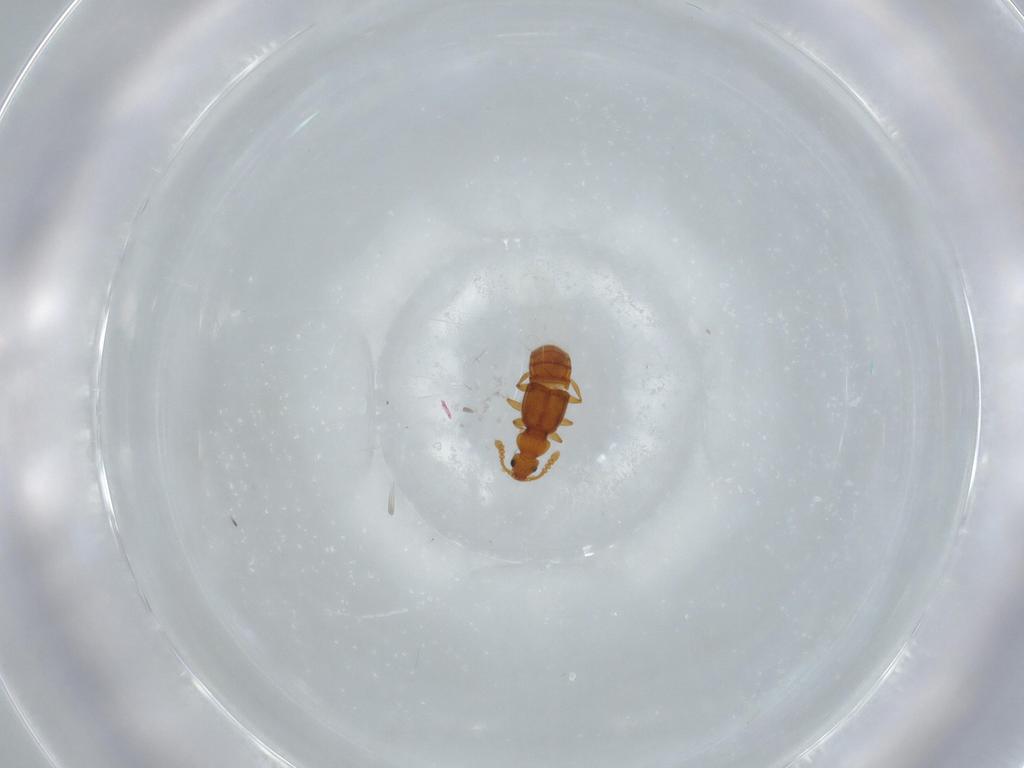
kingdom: Animalia
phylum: Arthropoda
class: Insecta
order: Coleoptera
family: Staphylinidae
